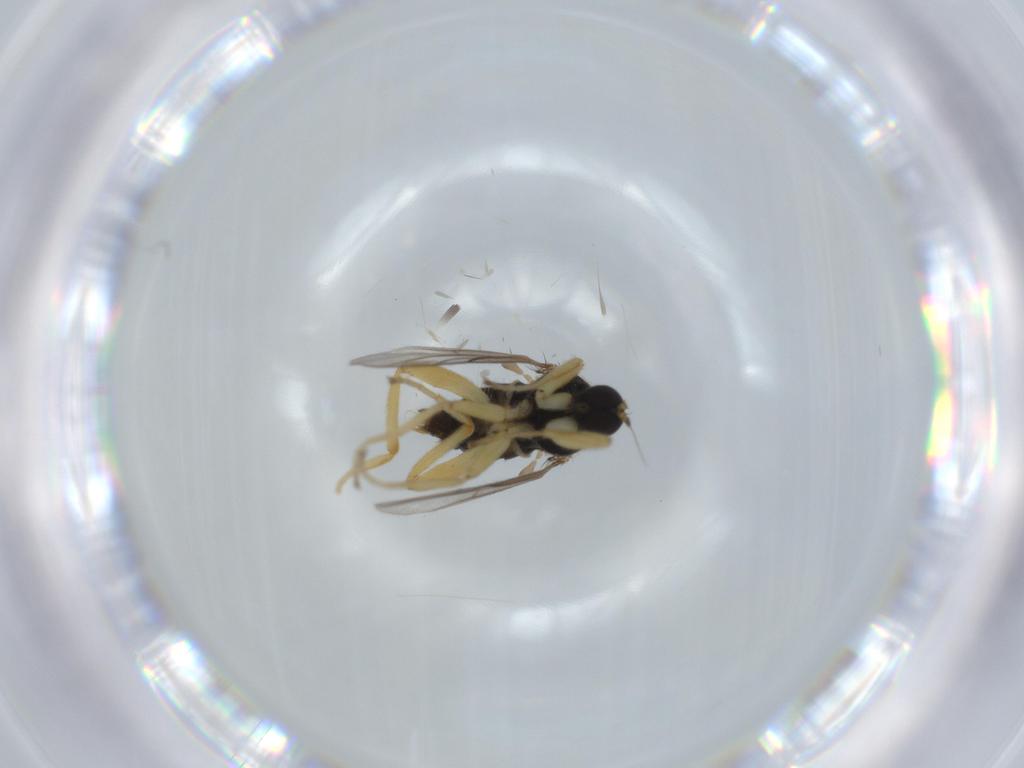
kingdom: Animalia
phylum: Arthropoda
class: Insecta
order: Diptera
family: Hybotidae
